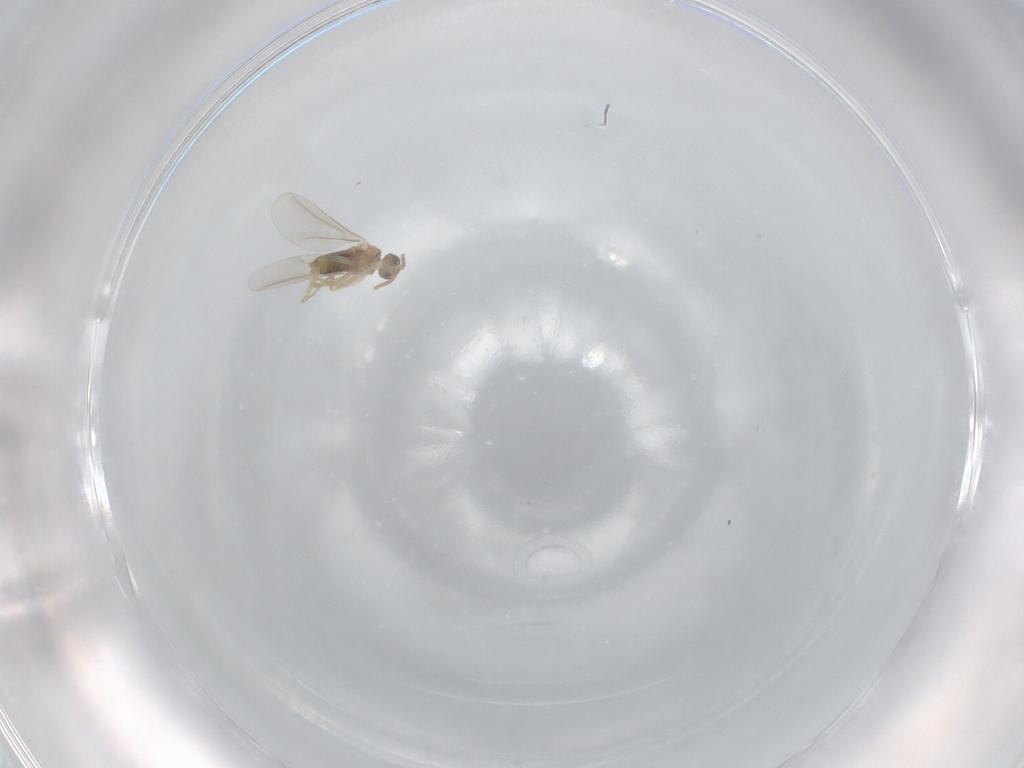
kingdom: Animalia
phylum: Arthropoda
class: Insecta
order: Diptera
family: Cecidomyiidae
